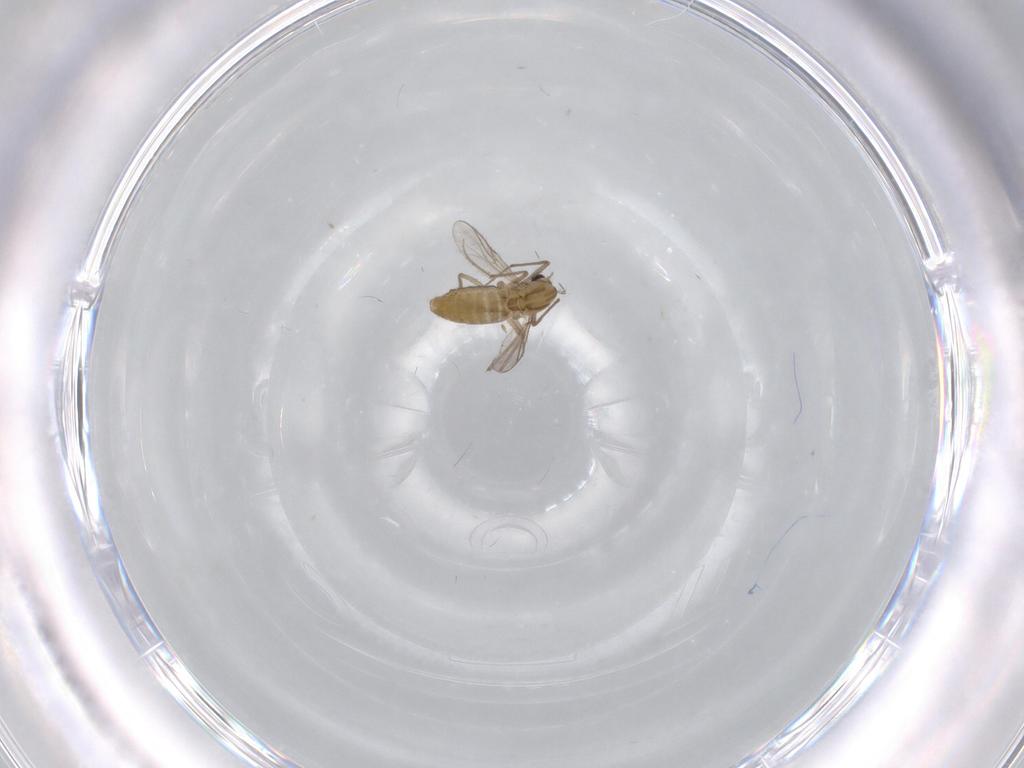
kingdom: Animalia
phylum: Arthropoda
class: Insecta
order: Diptera
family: Chironomidae
